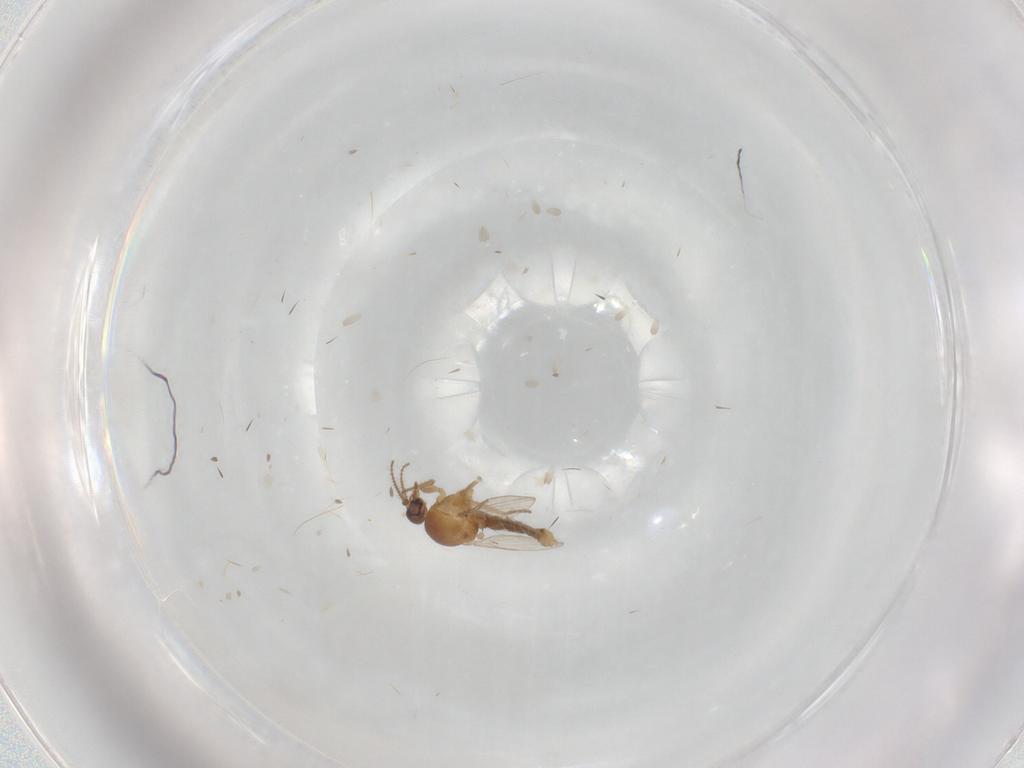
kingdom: Animalia
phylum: Arthropoda
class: Insecta
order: Diptera
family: Ceratopogonidae
